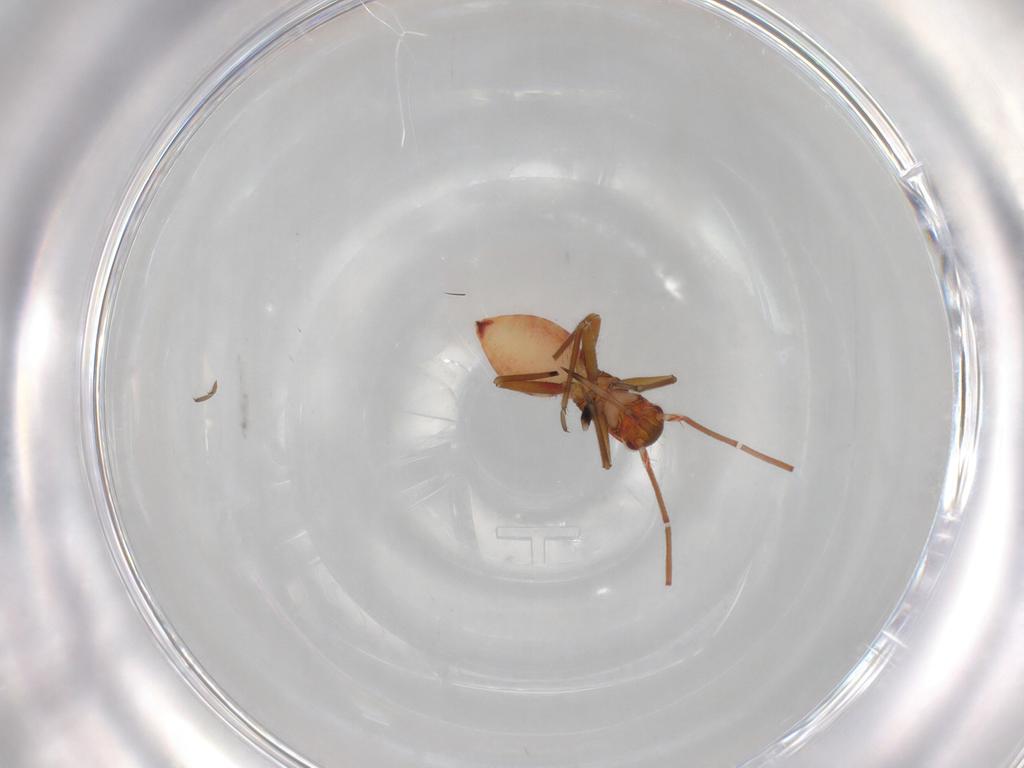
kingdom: Animalia
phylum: Arthropoda
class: Insecta
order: Hemiptera
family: Miridae
